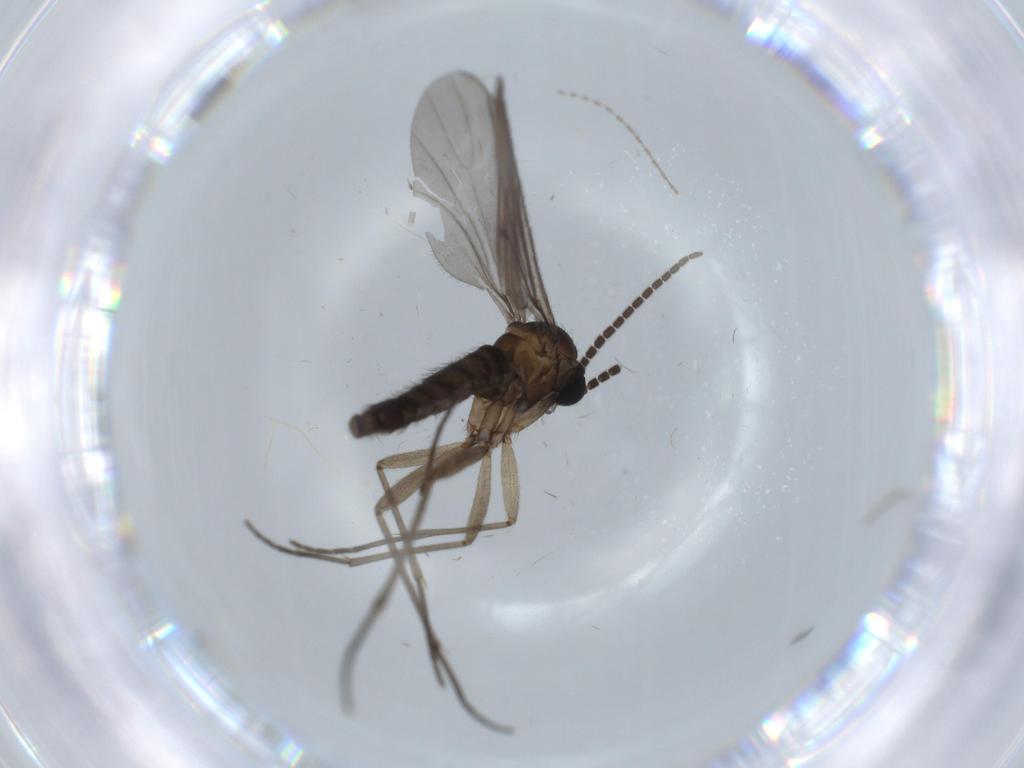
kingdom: Animalia
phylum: Arthropoda
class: Insecta
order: Diptera
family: Sciaridae
